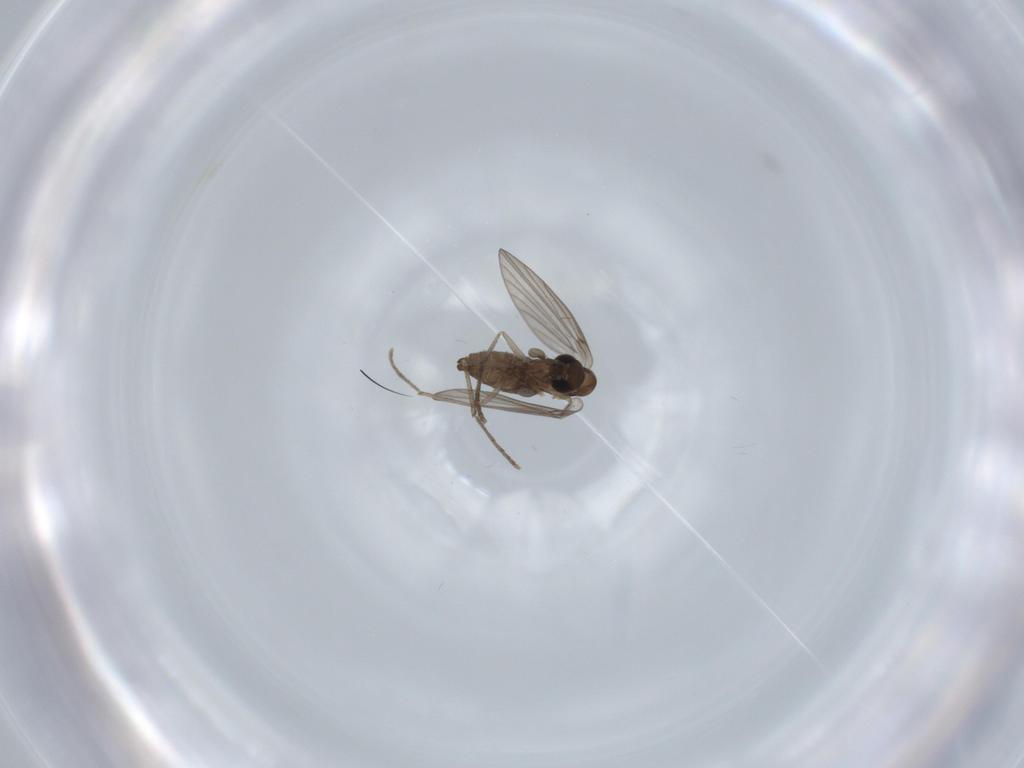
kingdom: Animalia
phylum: Arthropoda
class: Insecta
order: Diptera
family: Psychodidae
